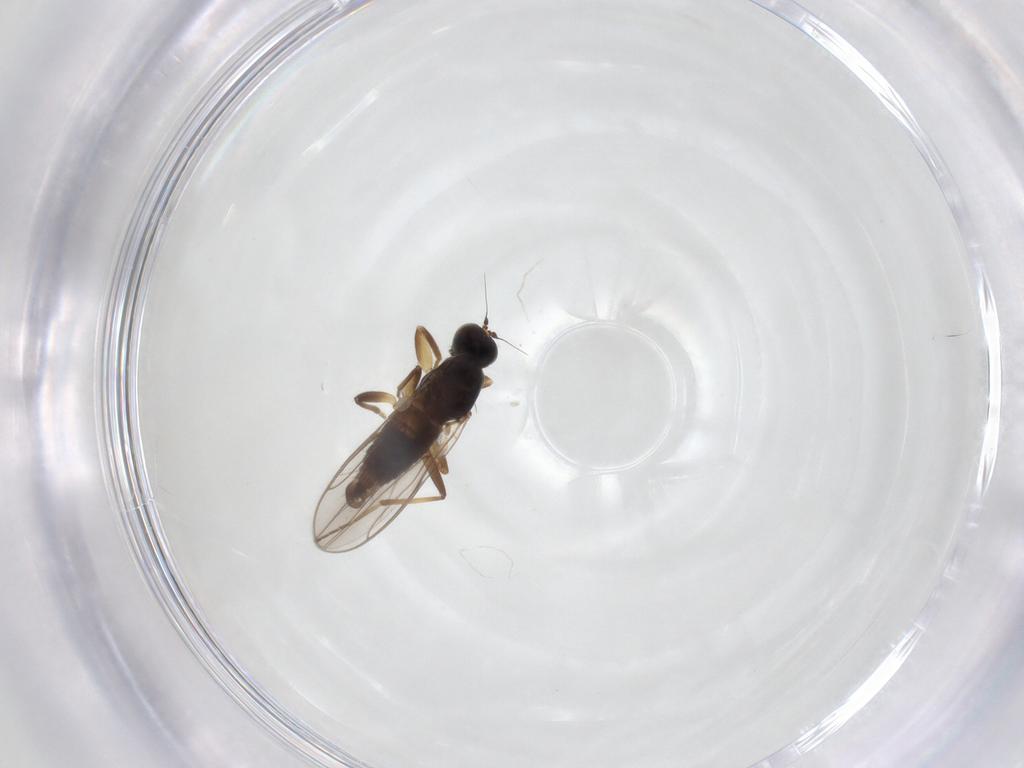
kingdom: Animalia
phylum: Arthropoda
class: Insecta
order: Diptera
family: Hybotidae
